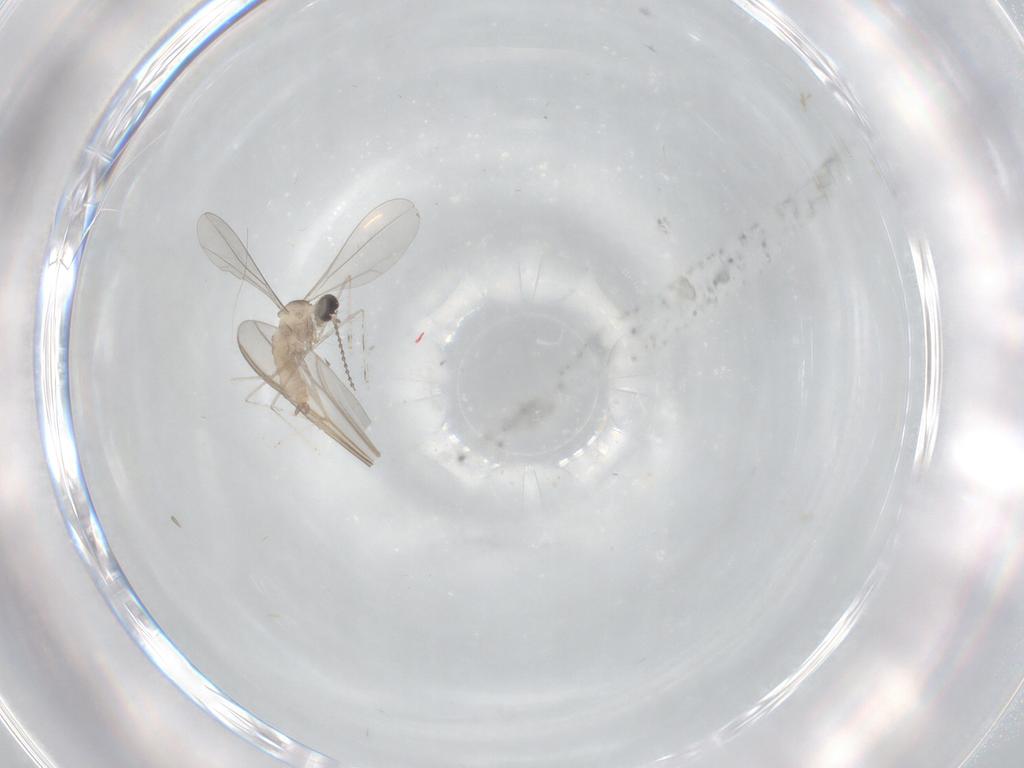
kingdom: Animalia
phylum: Arthropoda
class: Insecta
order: Diptera
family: Cecidomyiidae
